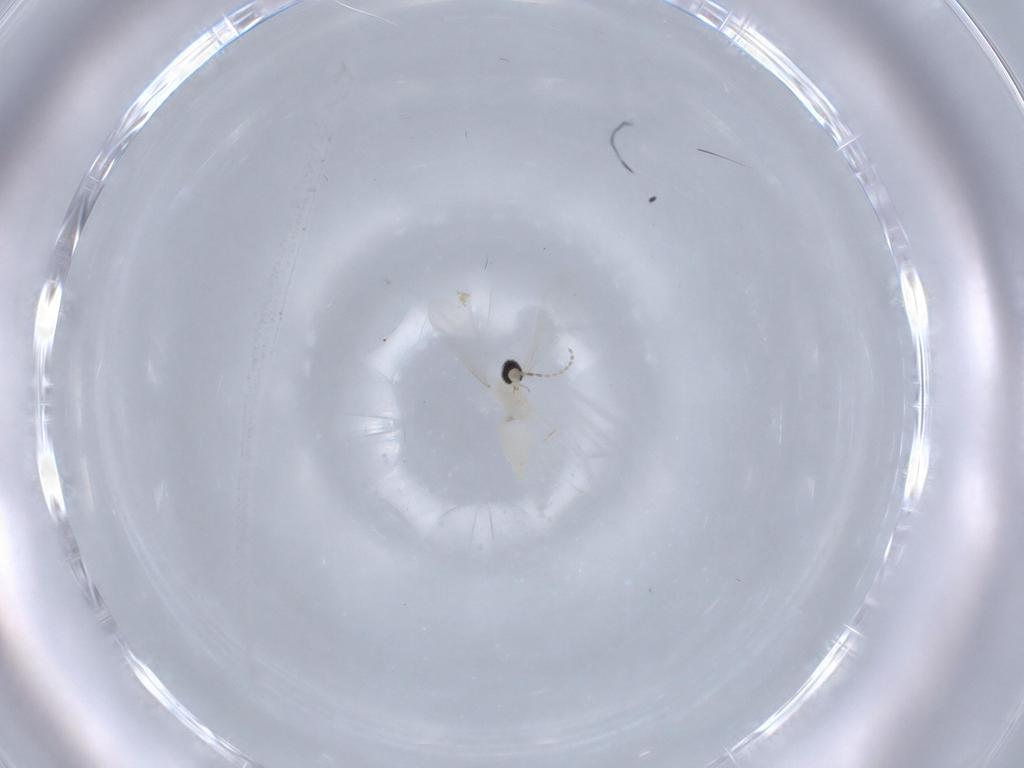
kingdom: Animalia
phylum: Arthropoda
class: Insecta
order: Diptera
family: Cecidomyiidae
